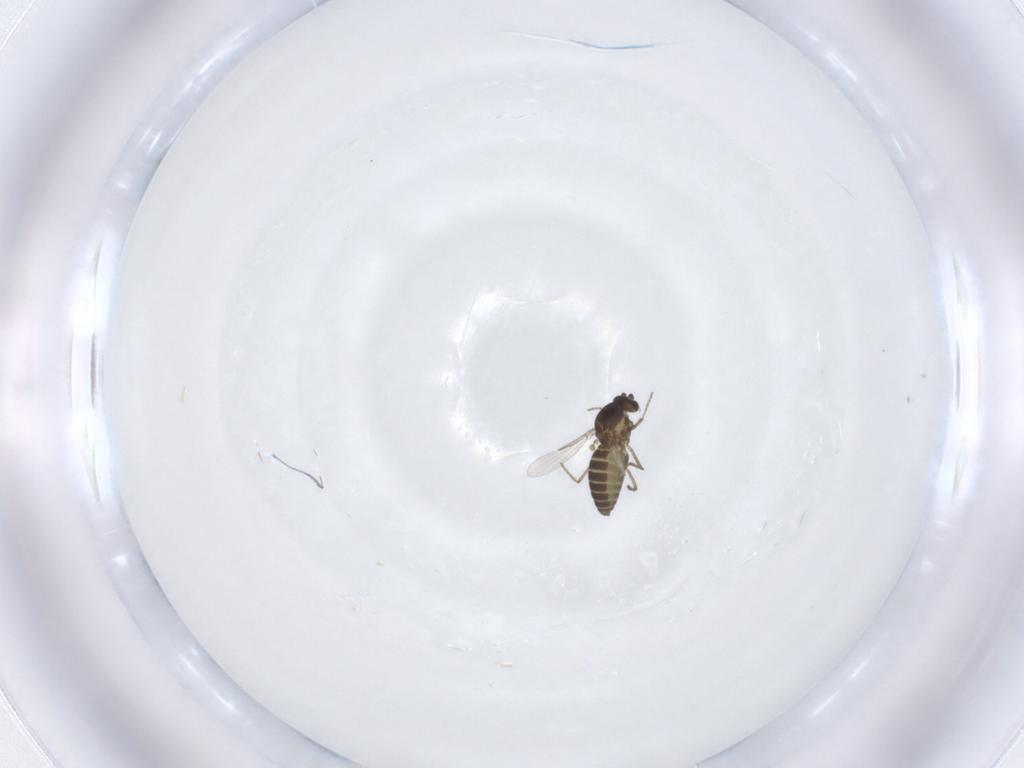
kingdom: Animalia
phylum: Arthropoda
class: Insecta
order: Diptera
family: Ceratopogonidae
